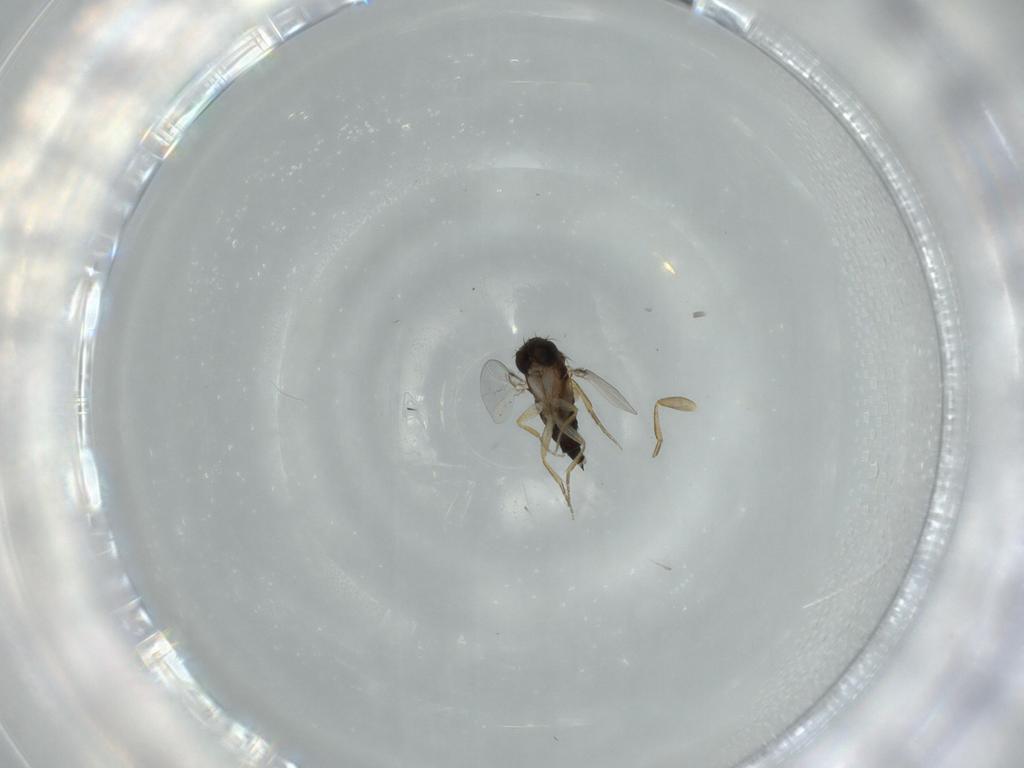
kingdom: Animalia
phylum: Arthropoda
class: Insecta
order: Diptera
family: Phoridae
